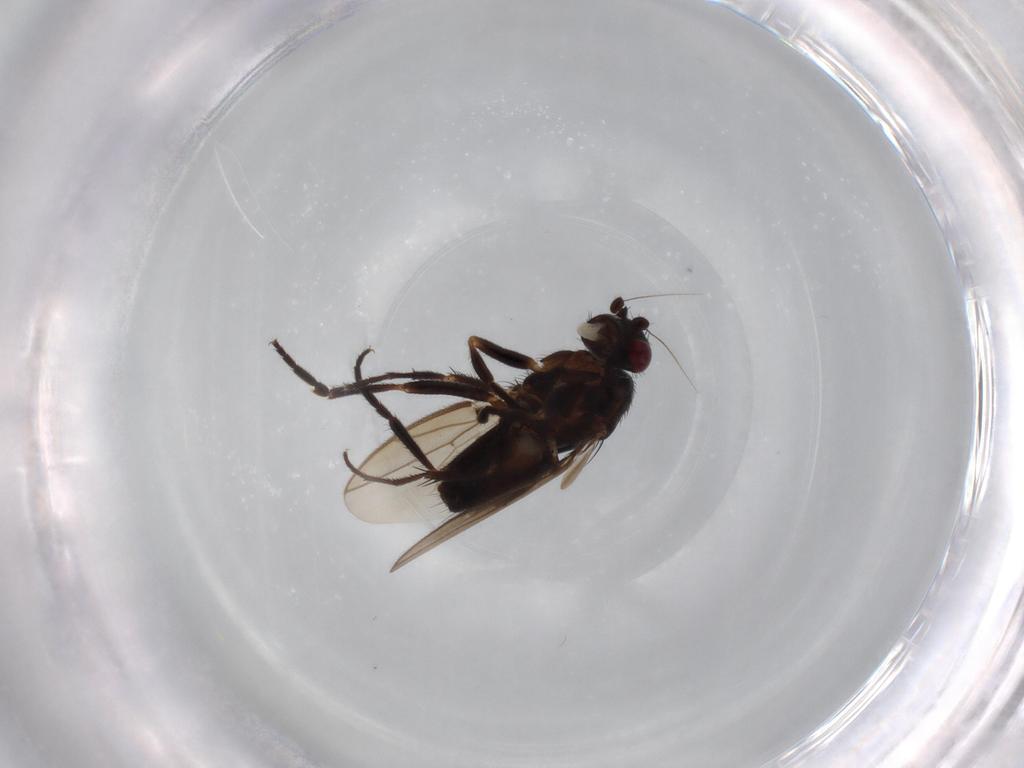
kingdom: Animalia
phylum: Arthropoda
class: Insecta
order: Diptera
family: Sphaeroceridae
